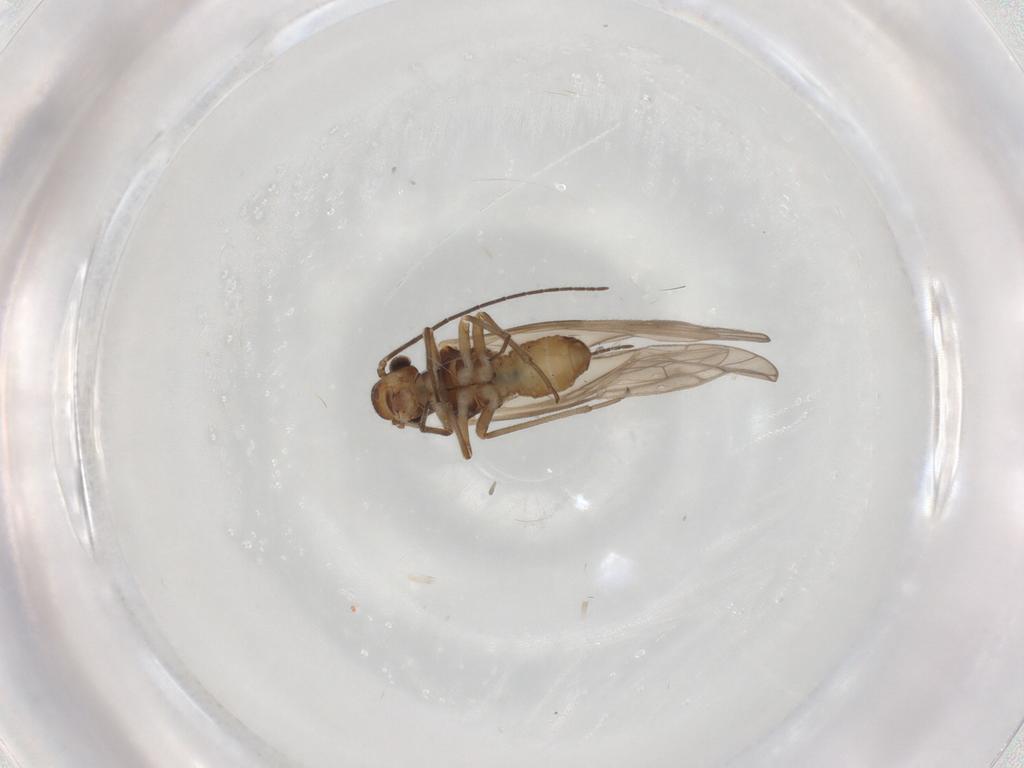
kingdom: Animalia
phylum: Arthropoda
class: Insecta
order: Psocodea
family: Philotarsidae
